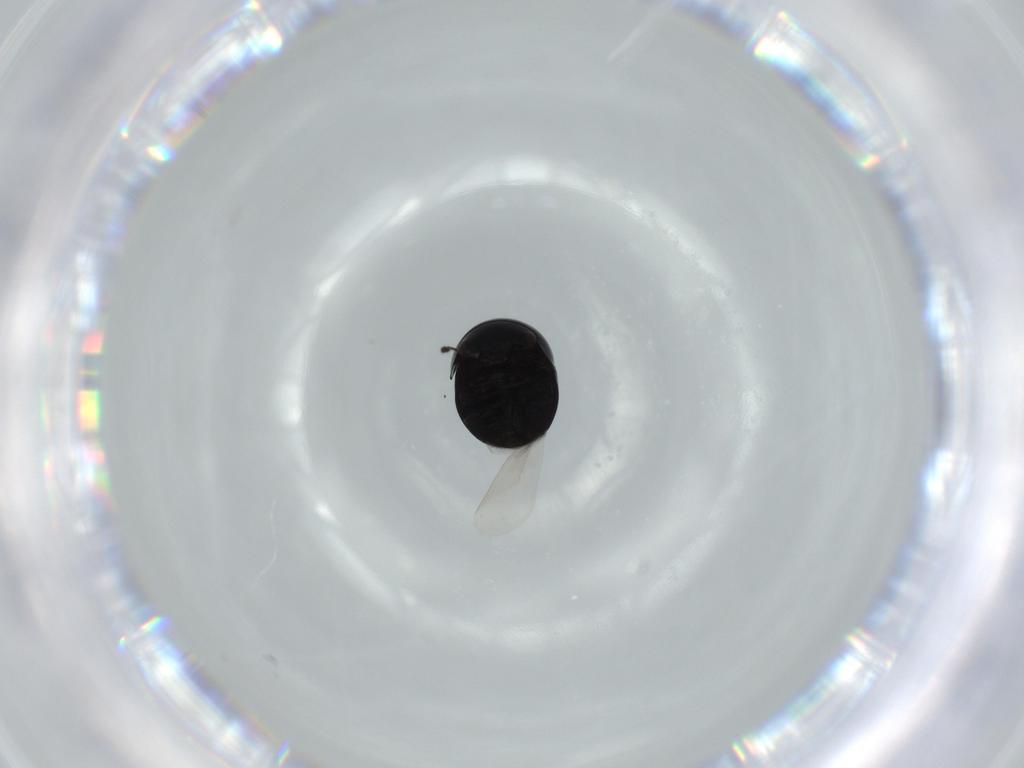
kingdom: Animalia
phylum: Arthropoda
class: Insecta
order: Coleoptera
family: Cybocephalidae
